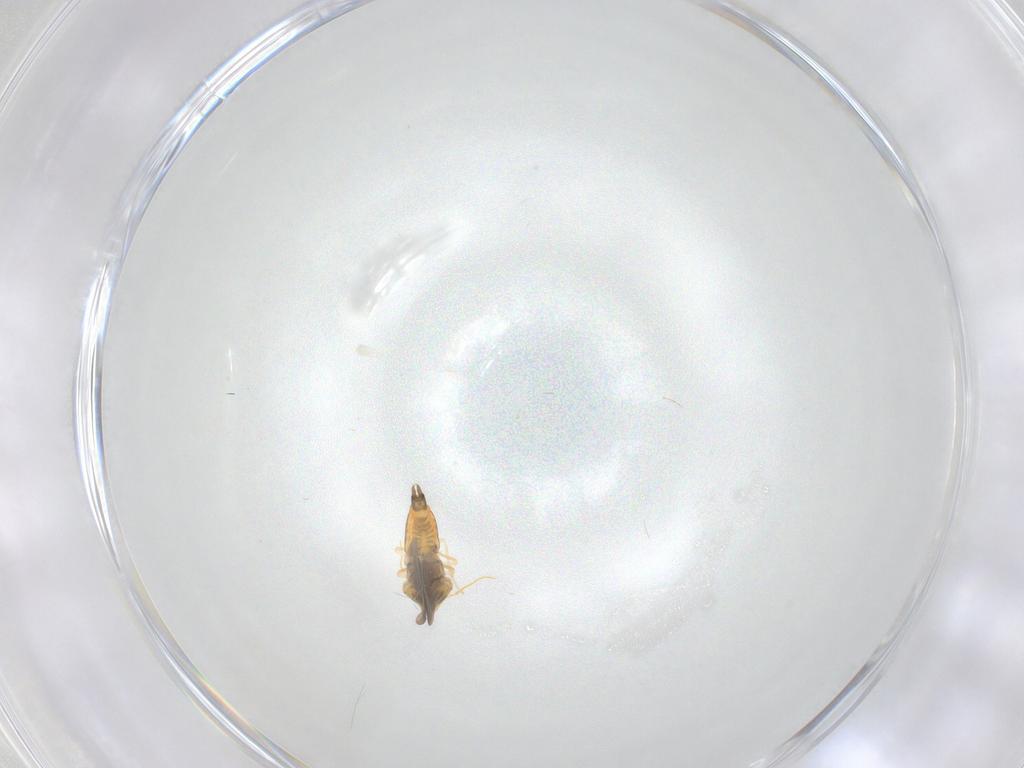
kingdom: Animalia
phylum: Arthropoda
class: Insecta
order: Hemiptera
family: Aleyrodidae
